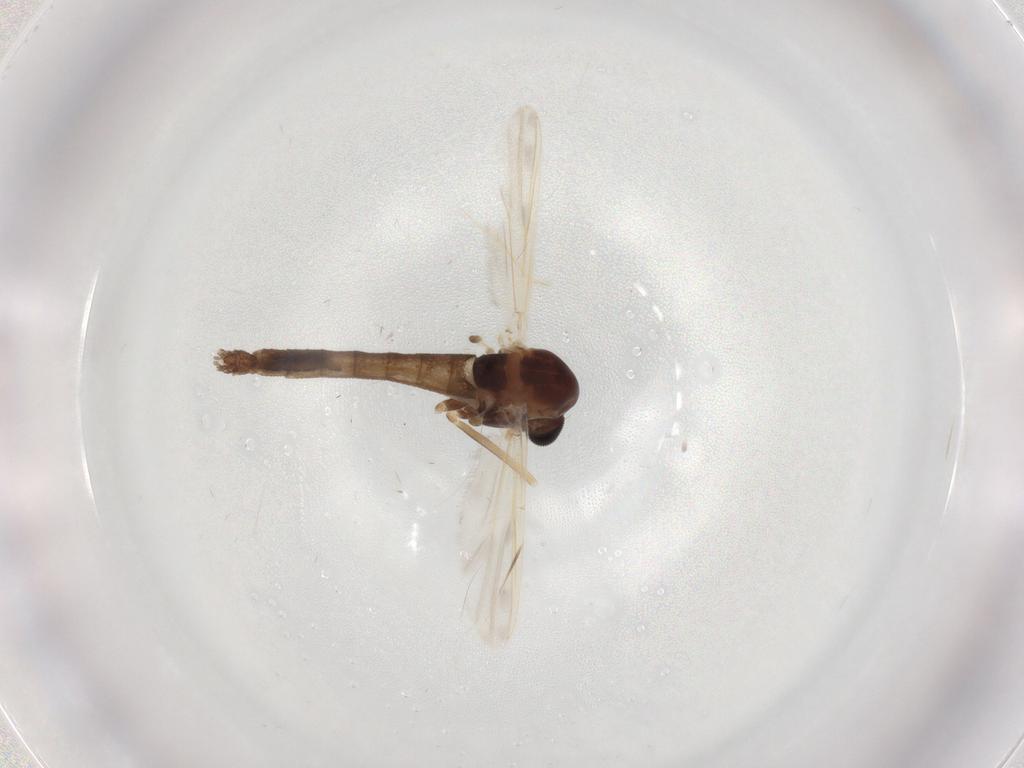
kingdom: Animalia
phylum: Arthropoda
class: Insecta
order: Diptera
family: Chironomidae
